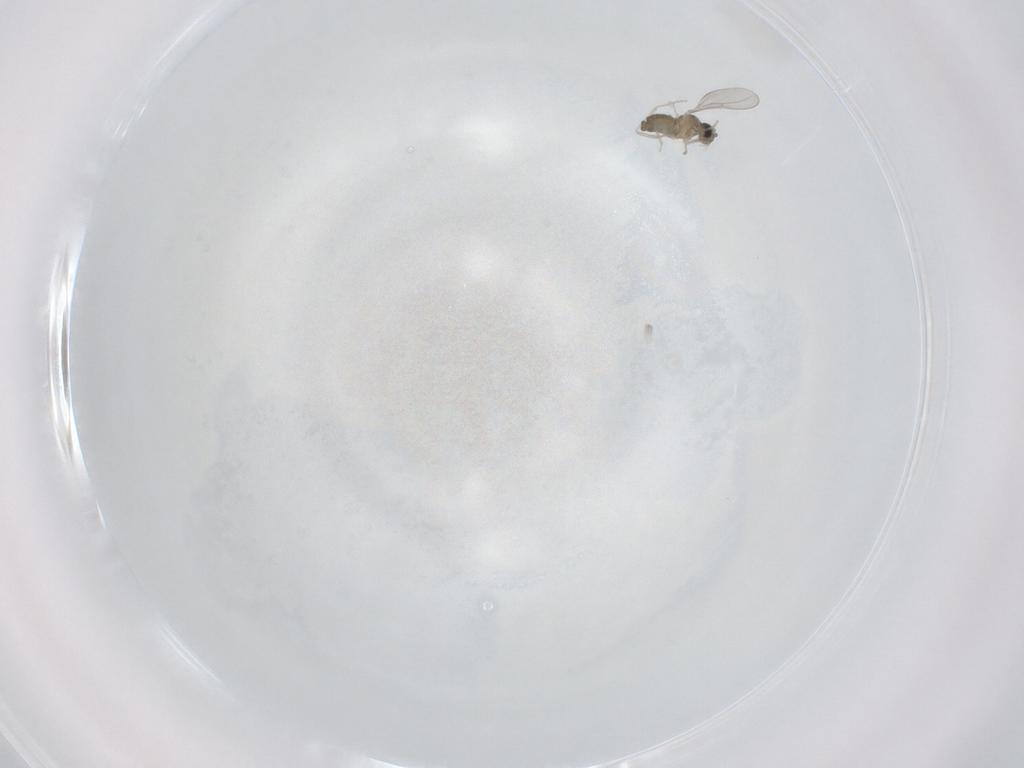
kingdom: Animalia
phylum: Arthropoda
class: Insecta
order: Diptera
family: Cecidomyiidae
